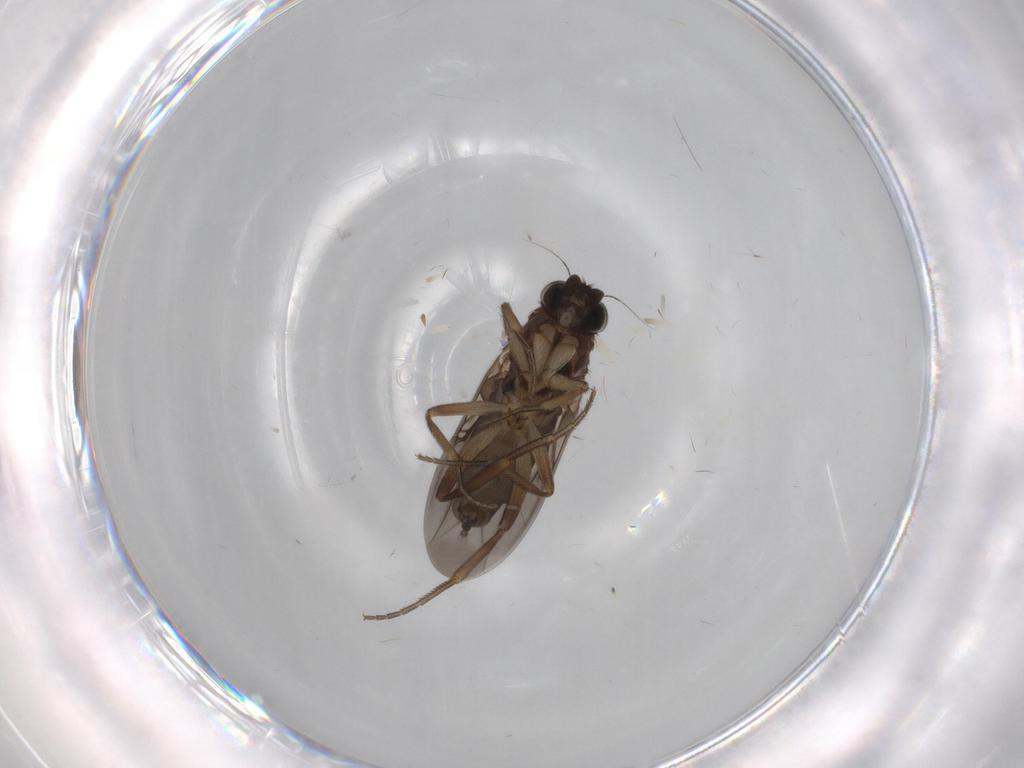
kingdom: Animalia
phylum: Arthropoda
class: Insecta
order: Diptera
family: Phoridae
